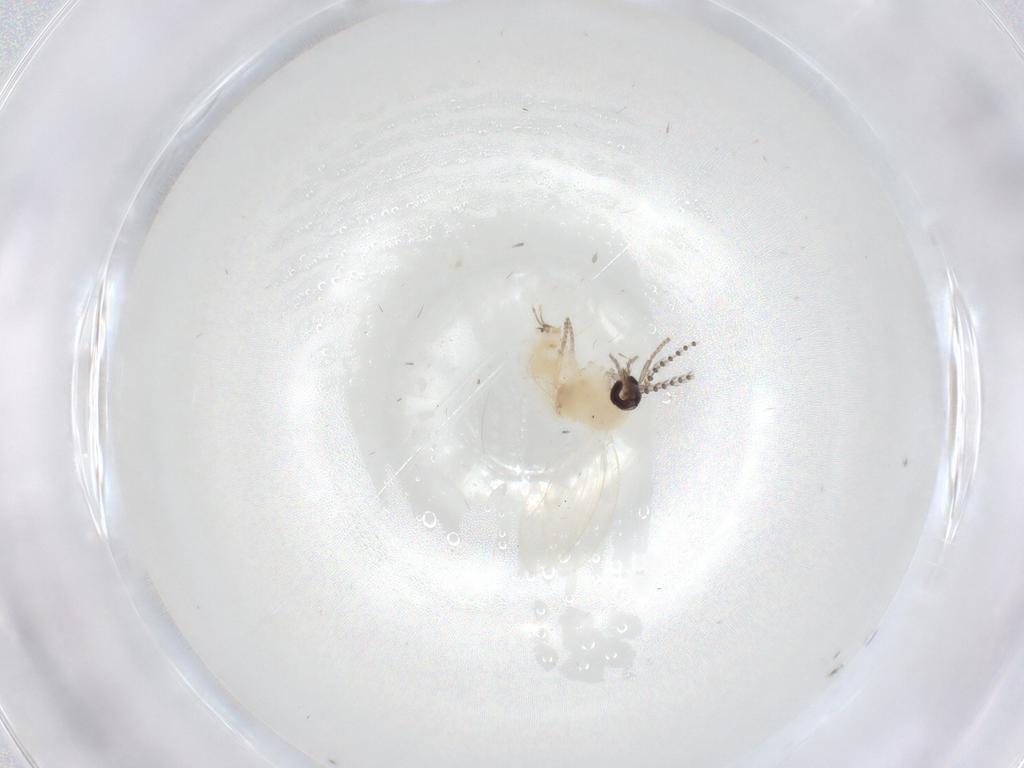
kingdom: Animalia
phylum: Arthropoda
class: Insecta
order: Diptera
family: Psychodidae
